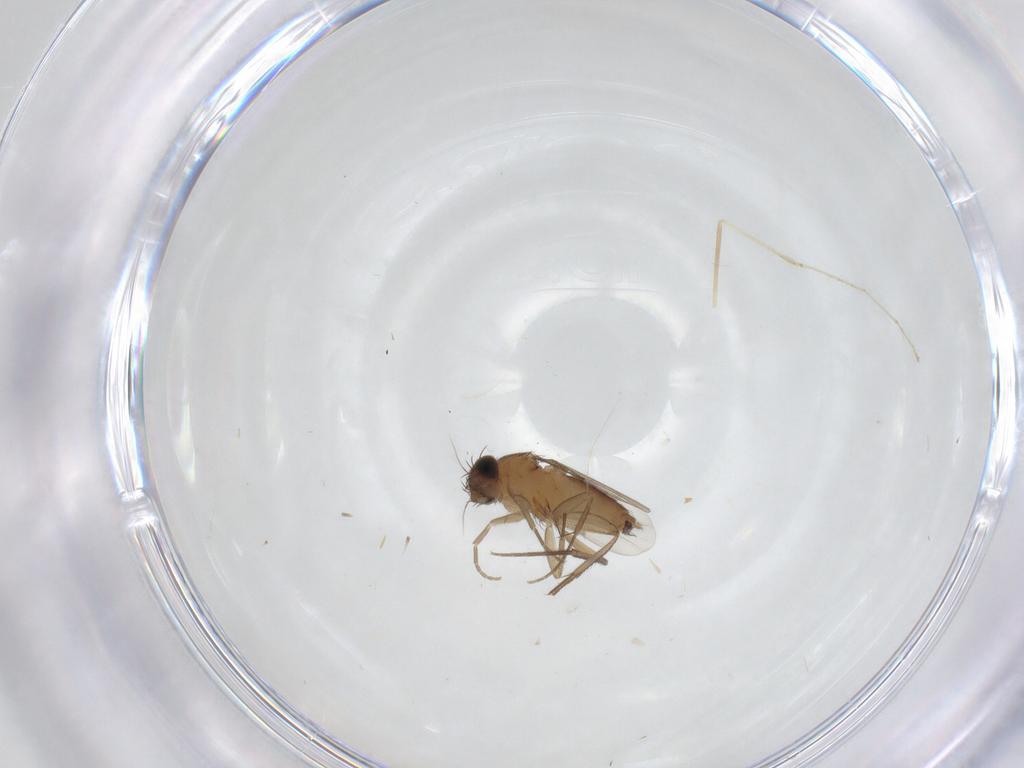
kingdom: Animalia
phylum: Arthropoda
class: Insecta
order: Diptera
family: Phoridae
